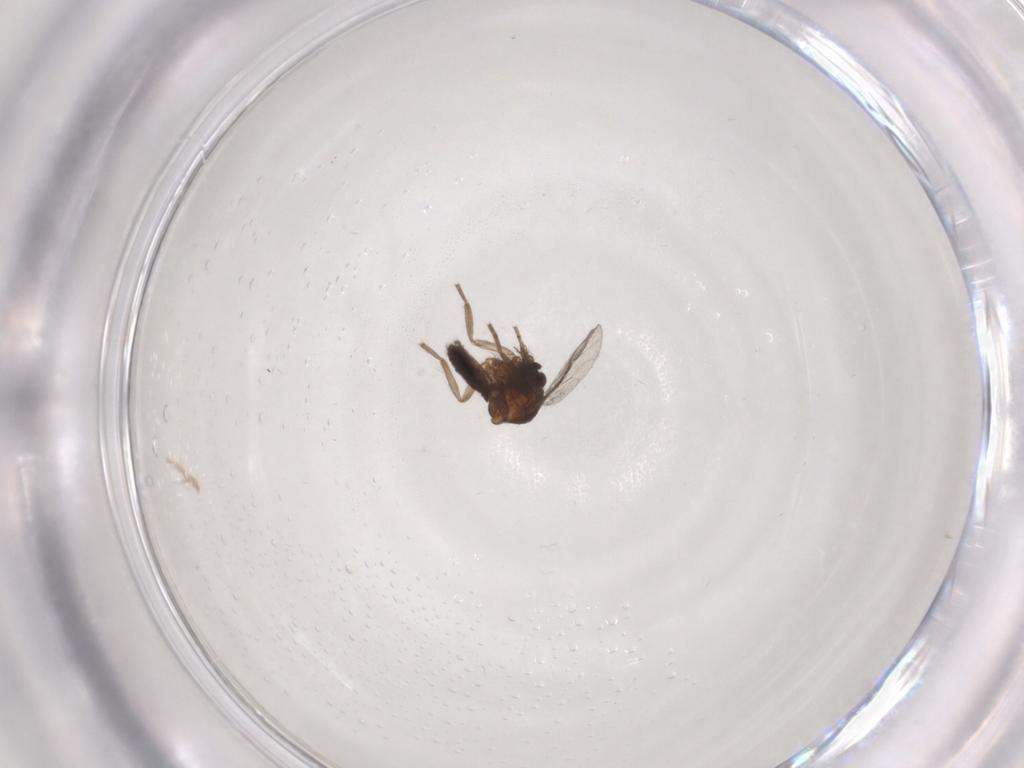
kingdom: Animalia
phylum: Arthropoda
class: Insecta
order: Diptera
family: Ceratopogonidae
